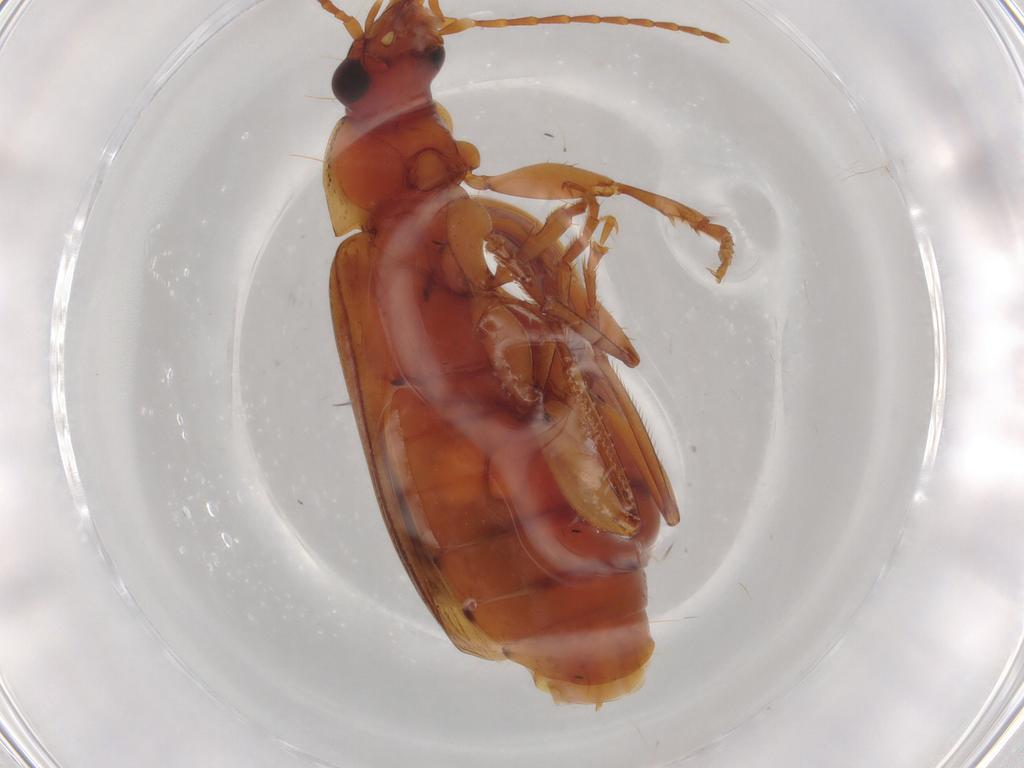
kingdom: Animalia
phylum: Arthropoda
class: Insecta
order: Coleoptera
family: Carabidae
